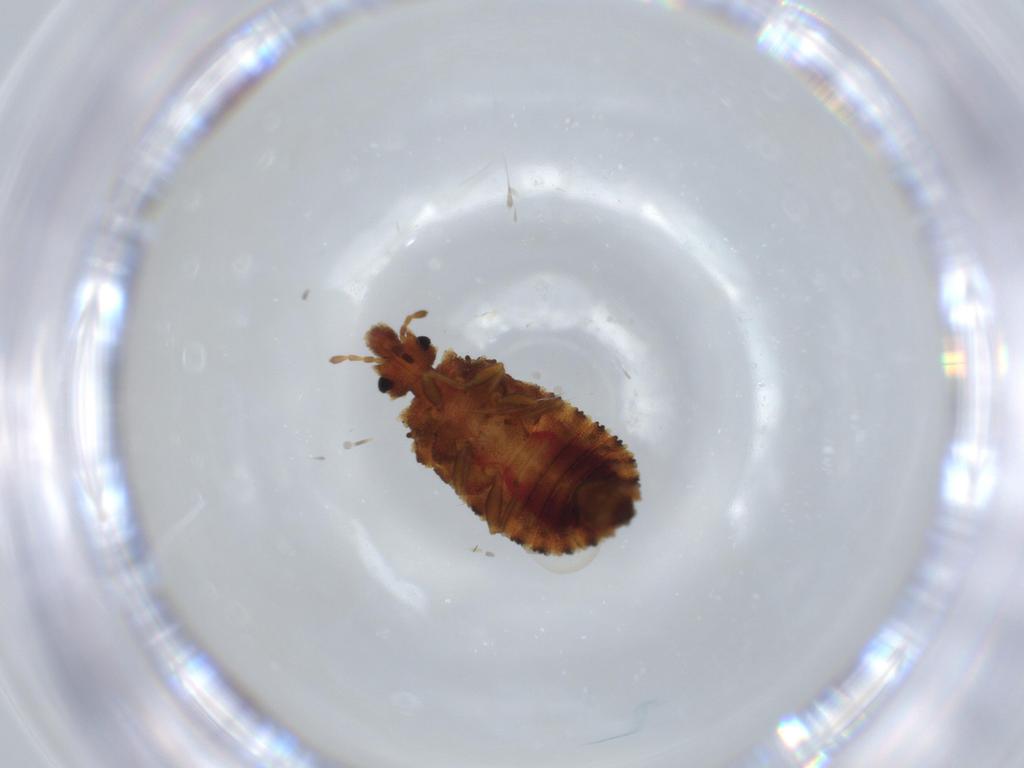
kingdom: Animalia
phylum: Arthropoda
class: Insecta
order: Hemiptera
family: Aradidae
